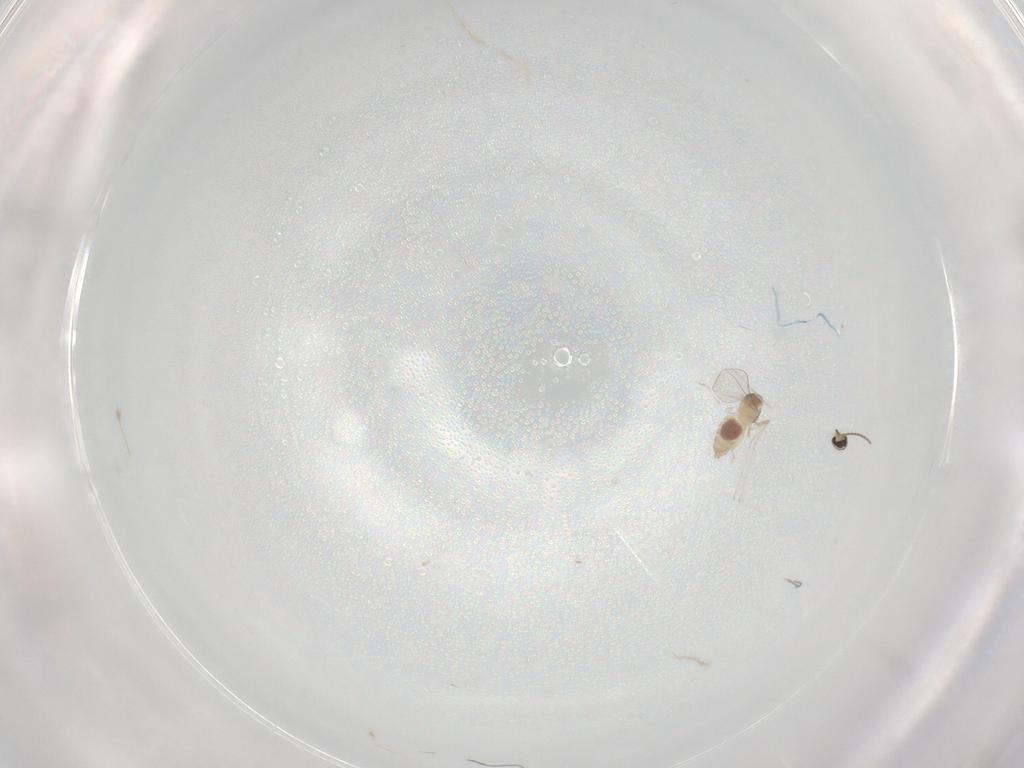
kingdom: Animalia
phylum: Arthropoda
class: Insecta
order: Diptera
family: Cecidomyiidae
